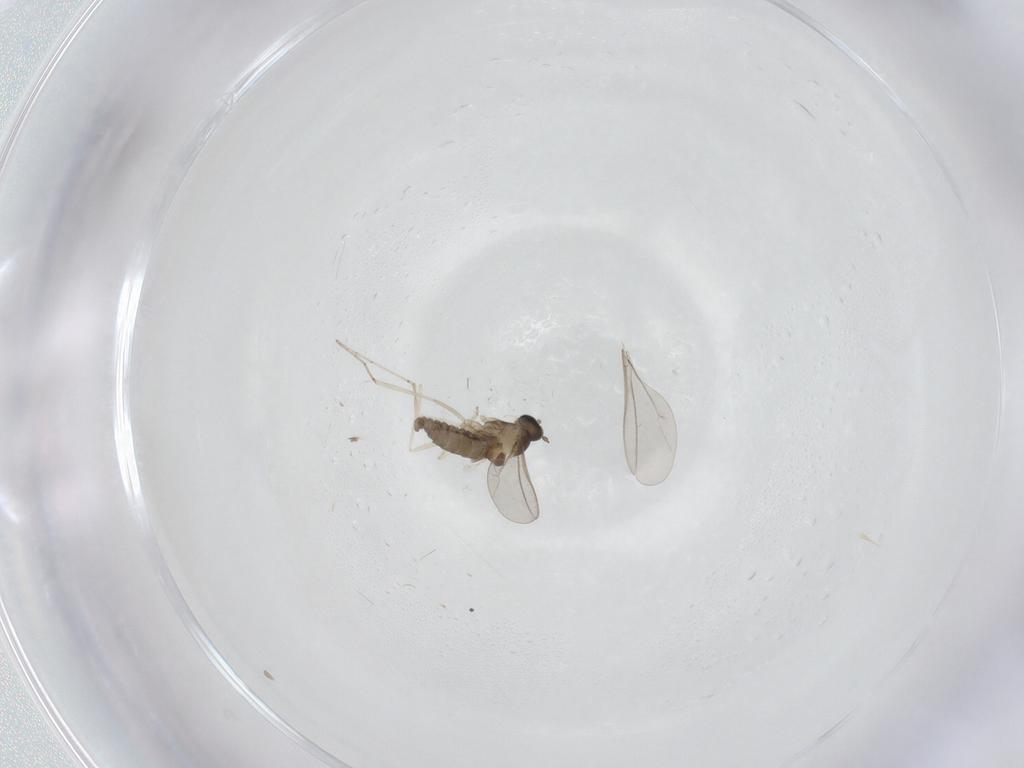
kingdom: Animalia
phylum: Arthropoda
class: Insecta
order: Diptera
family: Cecidomyiidae
